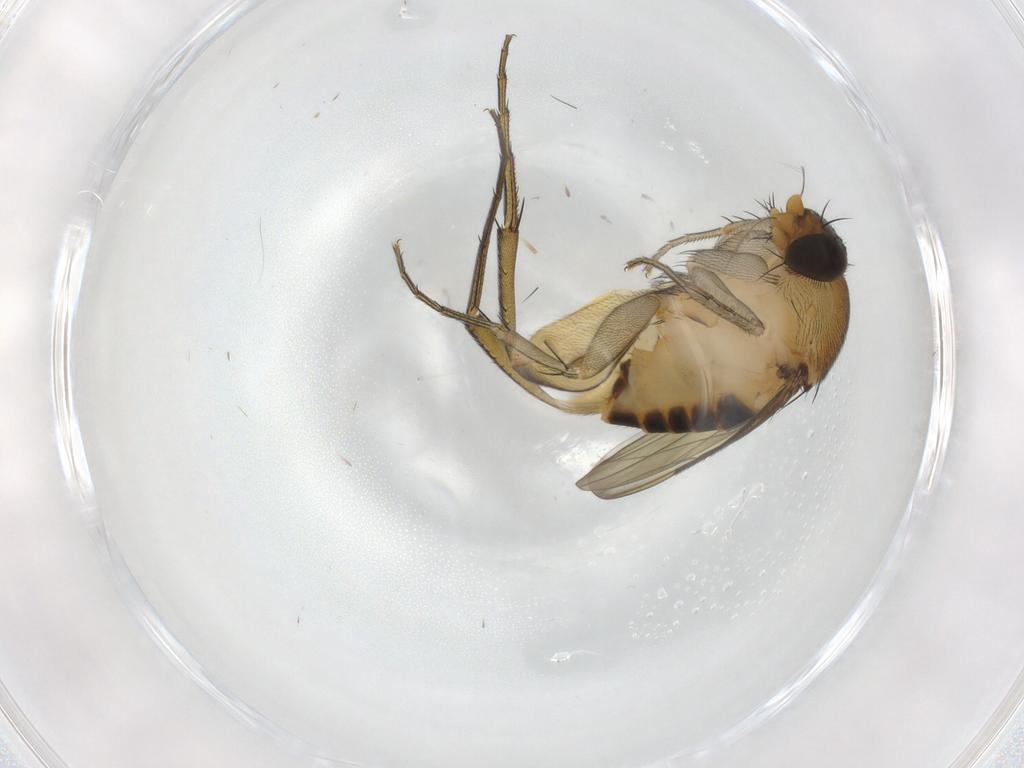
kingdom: Animalia
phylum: Arthropoda
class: Insecta
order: Diptera
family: Phoridae
